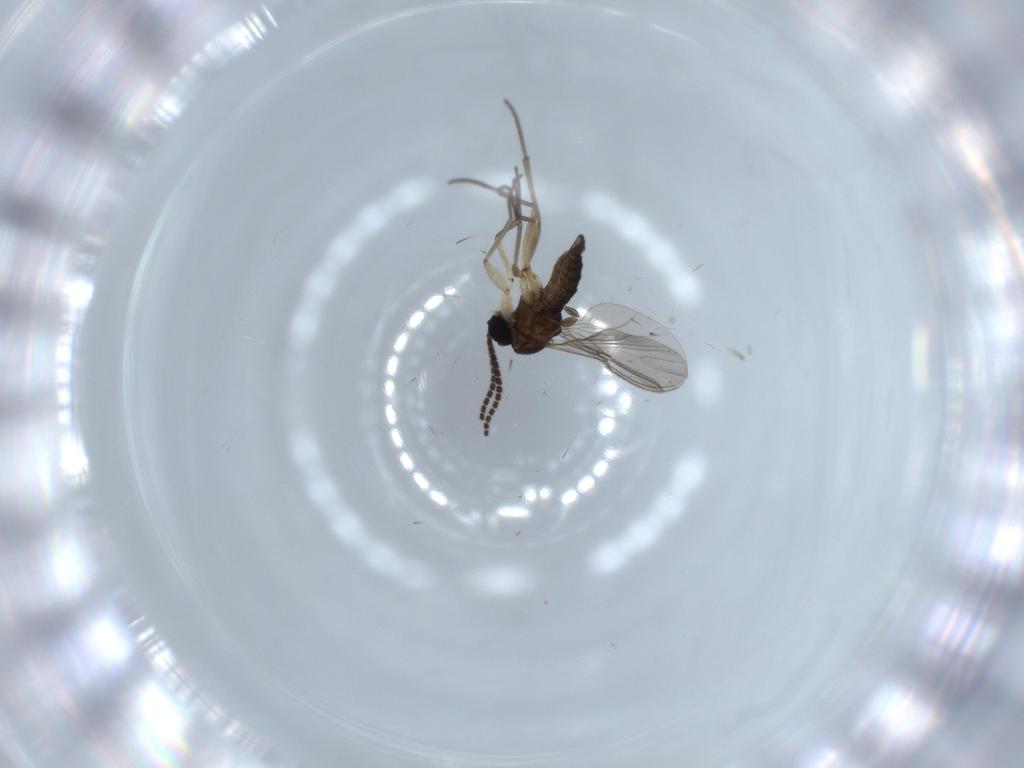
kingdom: Animalia
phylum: Arthropoda
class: Insecta
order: Diptera
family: Sciaridae
